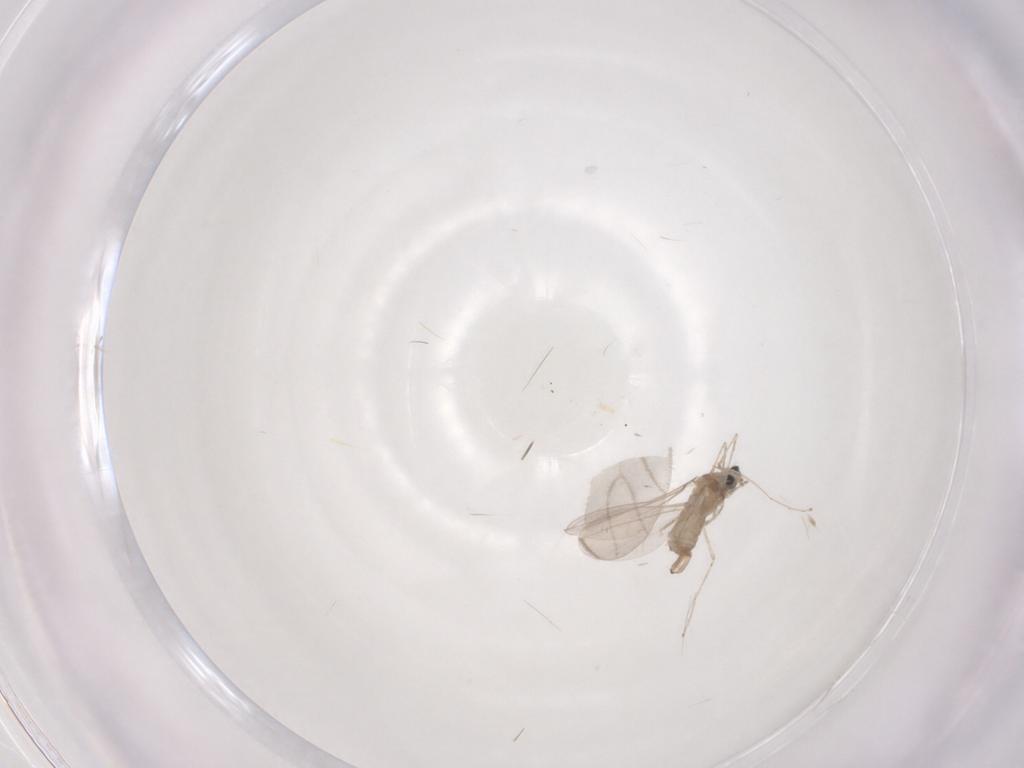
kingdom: Animalia
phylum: Arthropoda
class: Insecta
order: Diptera
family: Ceratopogonidae
